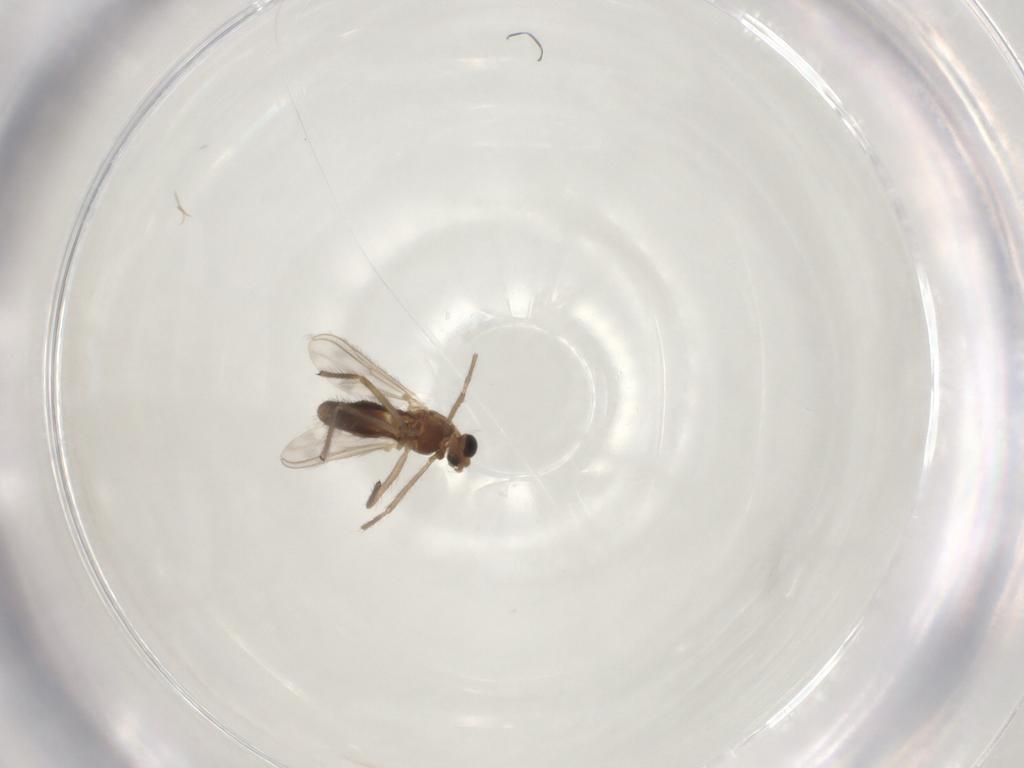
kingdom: Animalia
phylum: Arthropoda
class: Insecta
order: Diptera
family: Chironomidae
